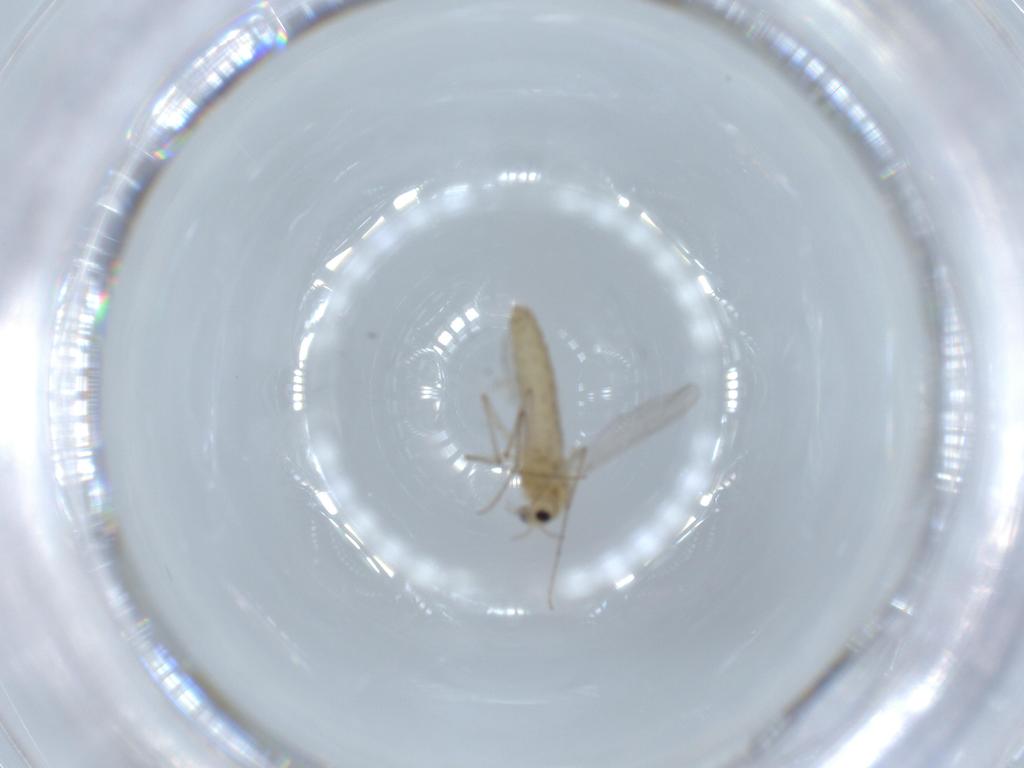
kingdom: Animalia
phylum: Arthropoda
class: Insecta
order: Diptera
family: Chironomidae
